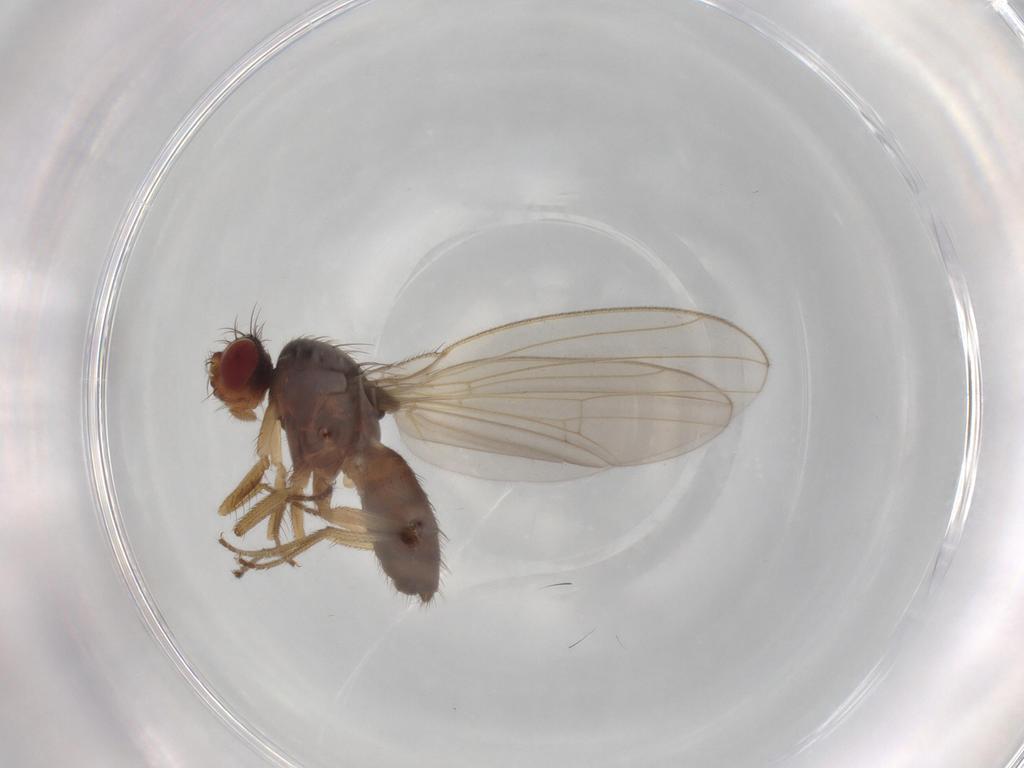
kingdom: Animalia
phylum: Arthropoda
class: Insecta
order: Diptera
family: Drosophilidae
